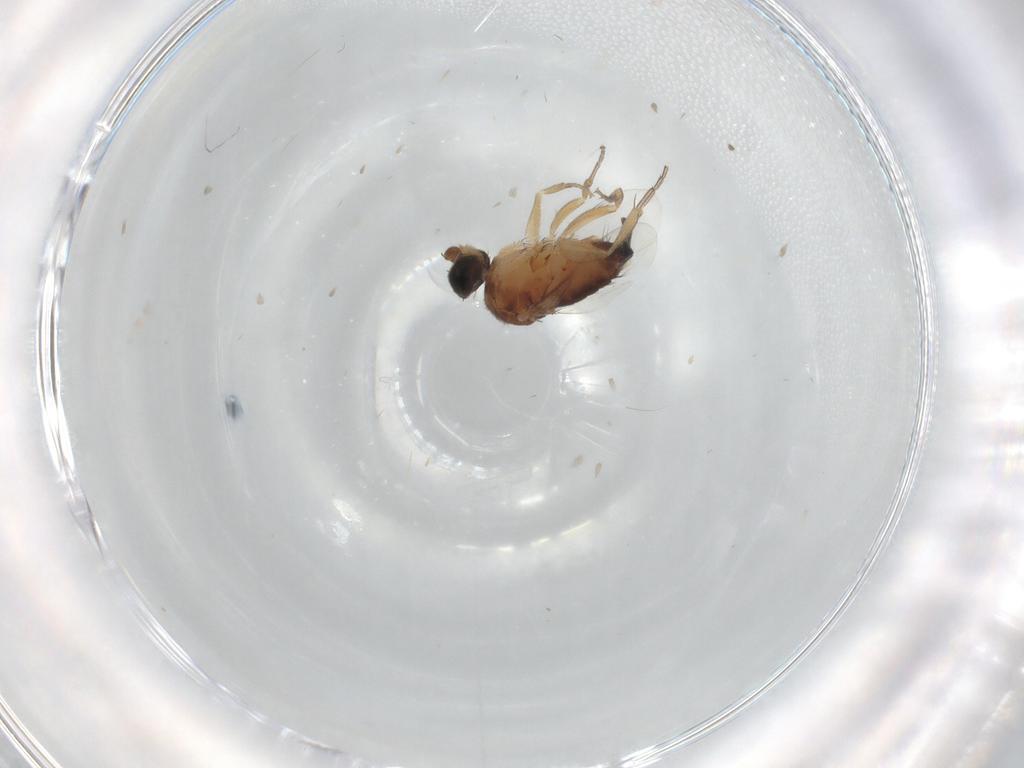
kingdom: Animalia
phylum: Arthropoda
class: Insecta
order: Diptera
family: Phoridae
